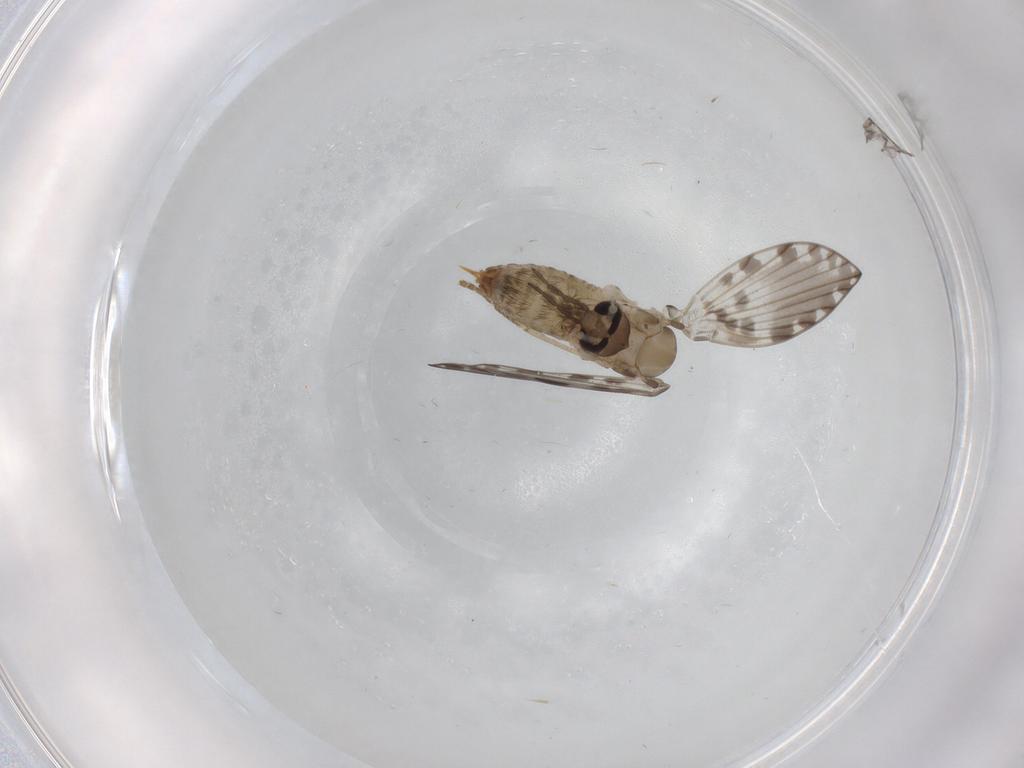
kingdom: Animalia
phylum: Arthropoda
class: Insecta
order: Diptera
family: Psychodidae
